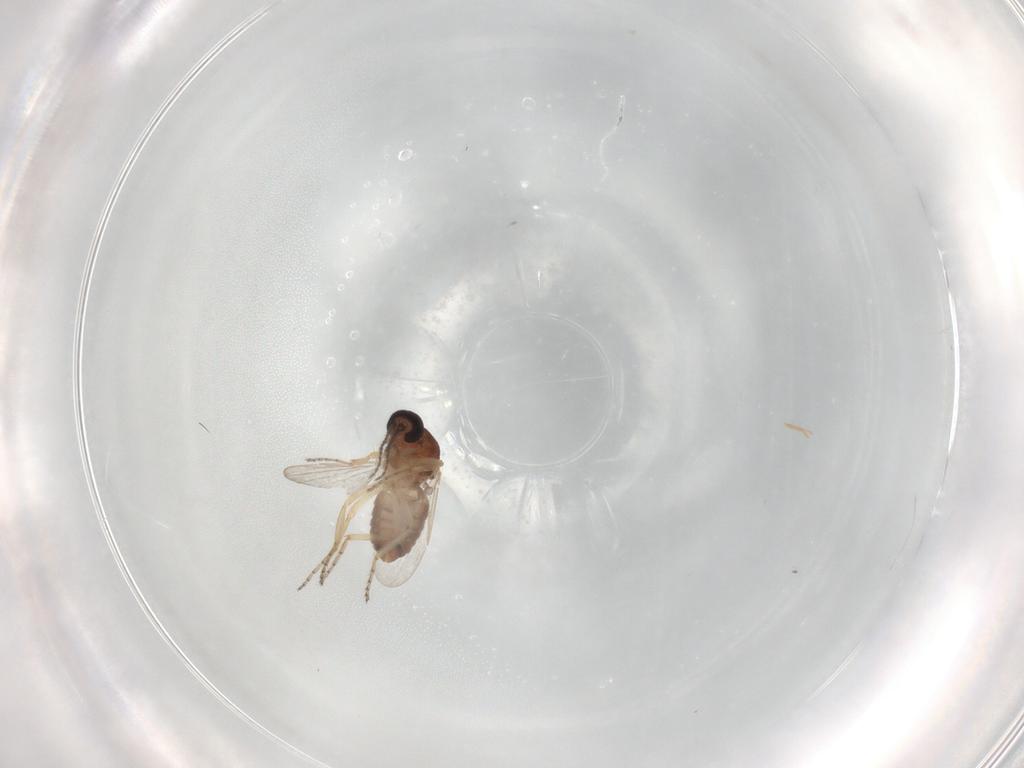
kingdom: Animalia
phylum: Arthropoda
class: Insecta
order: Diptera
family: Ceratopogonidae
